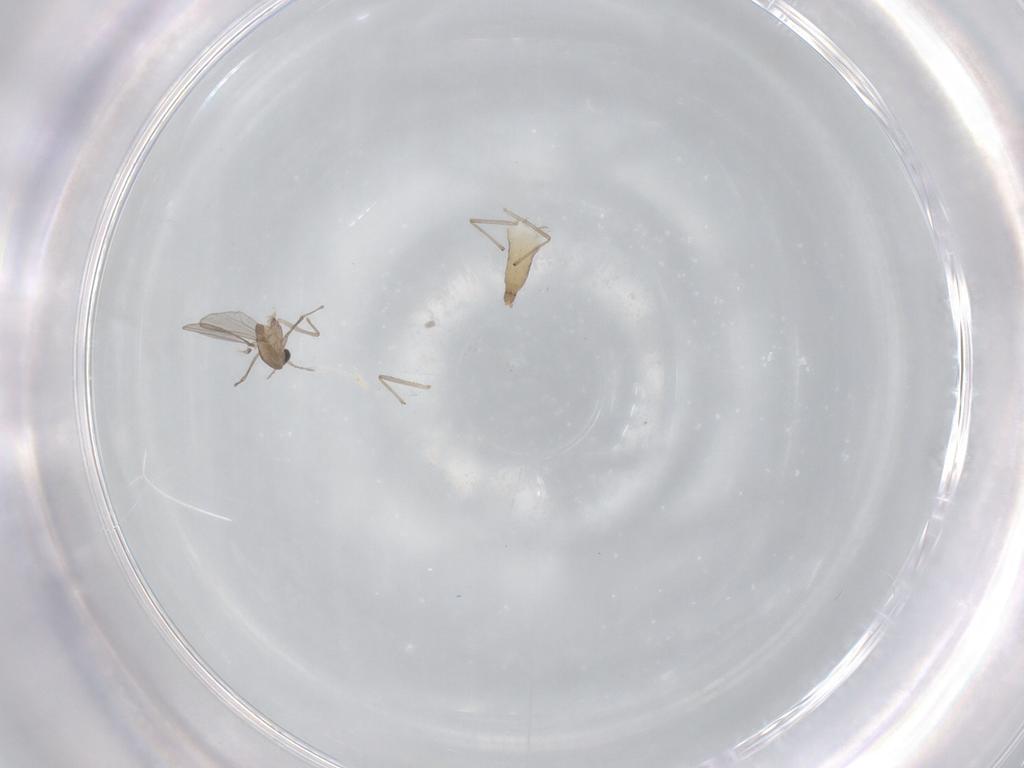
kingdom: Animalia
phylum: Arthropoda
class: Insecta
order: Diptera
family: Chironomidae
